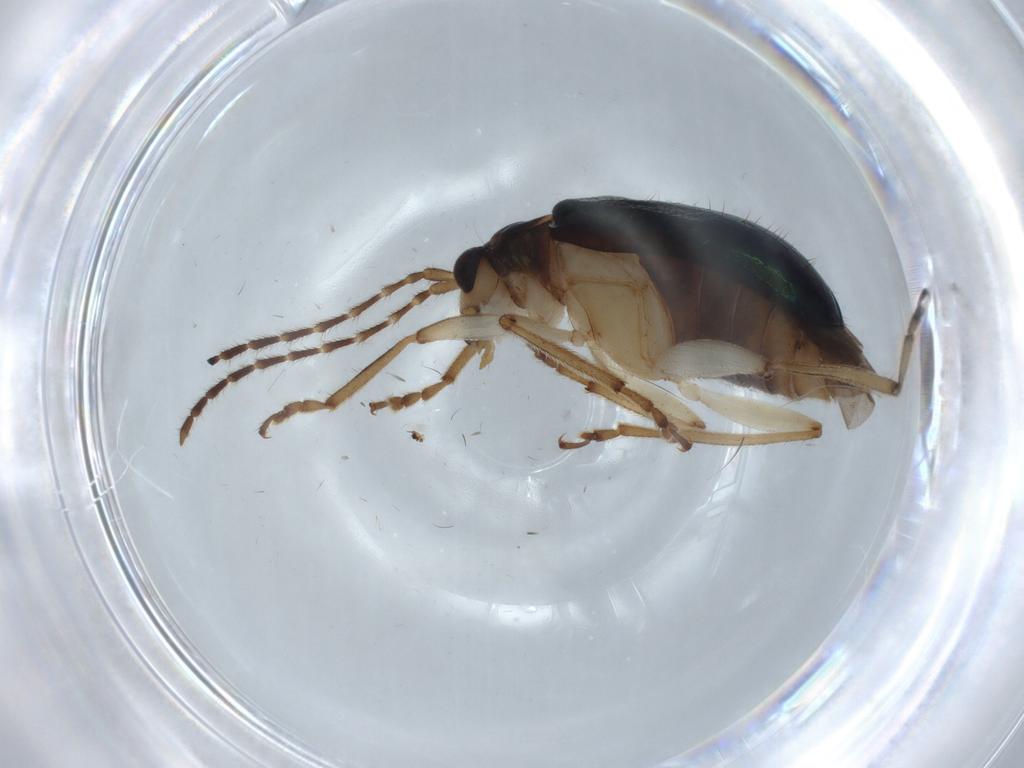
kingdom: Animalia
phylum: Arthropoda
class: Insecta
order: Coleoptera
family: Chrysomelidae
